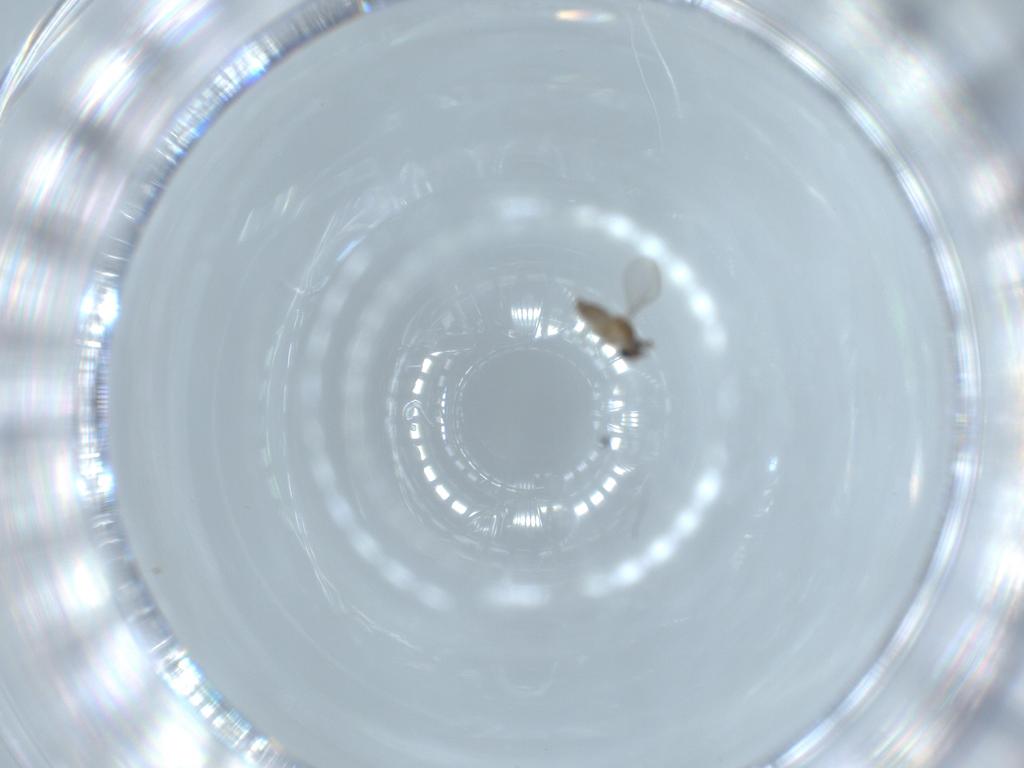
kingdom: Animalia
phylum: Arthropoda
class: Insecta
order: Diptera
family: Cecidomyiidae
